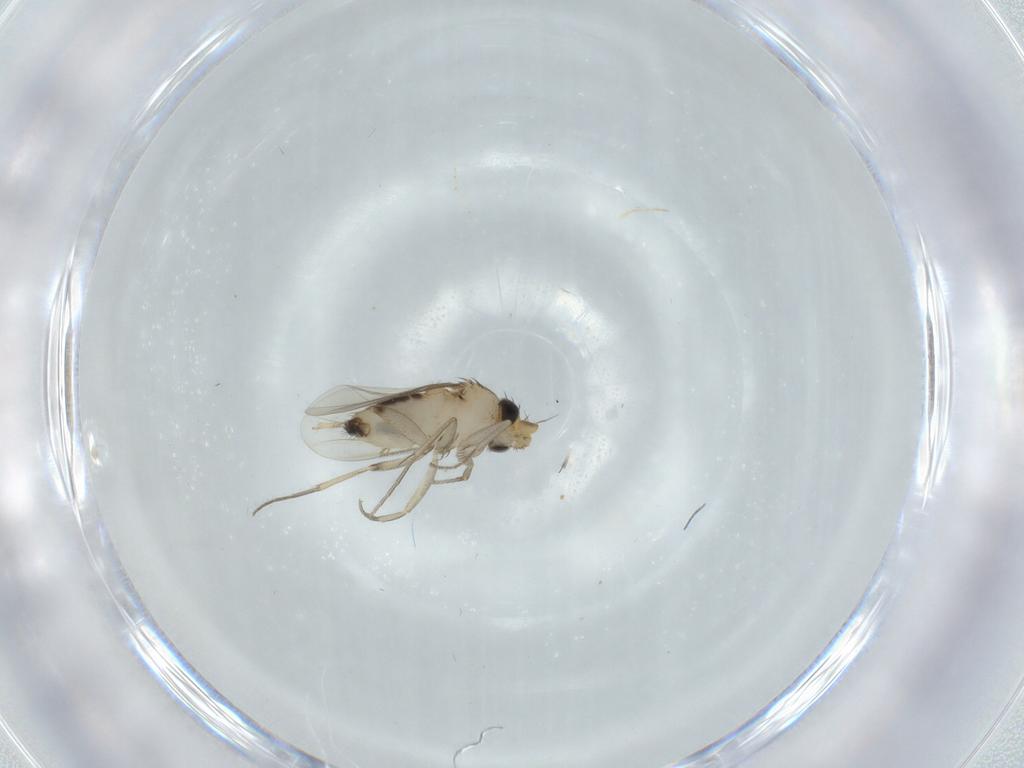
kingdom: Animalia
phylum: Arthropoda
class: Insecta
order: Diptera
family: Phoridae
